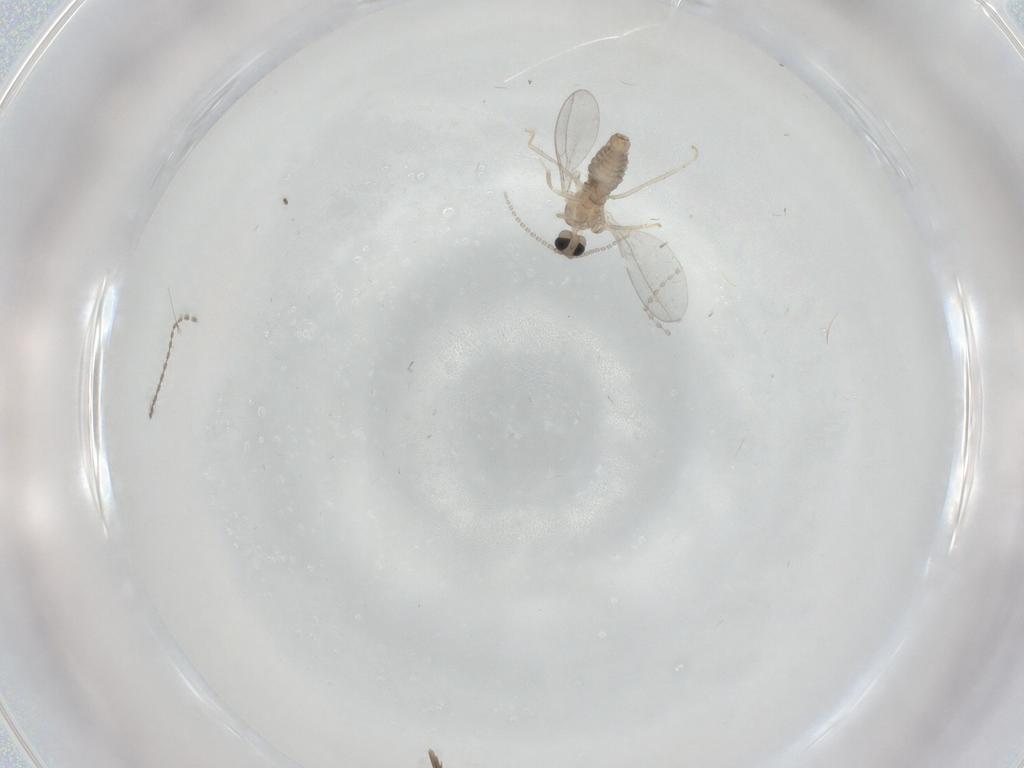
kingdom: Animalia
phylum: Arthropoda
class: Insecta
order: Diptera
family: Cecidomyiidae
